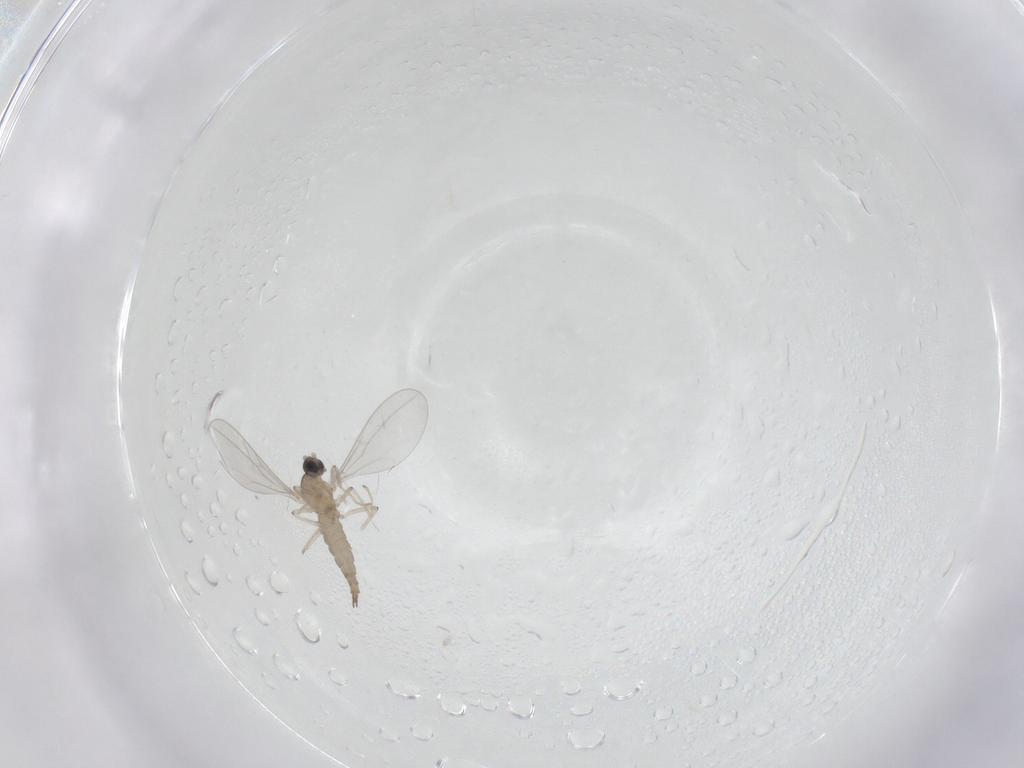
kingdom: Animalia
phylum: Arthropoda
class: Insecta
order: Diptera
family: Cecidomyiidae
